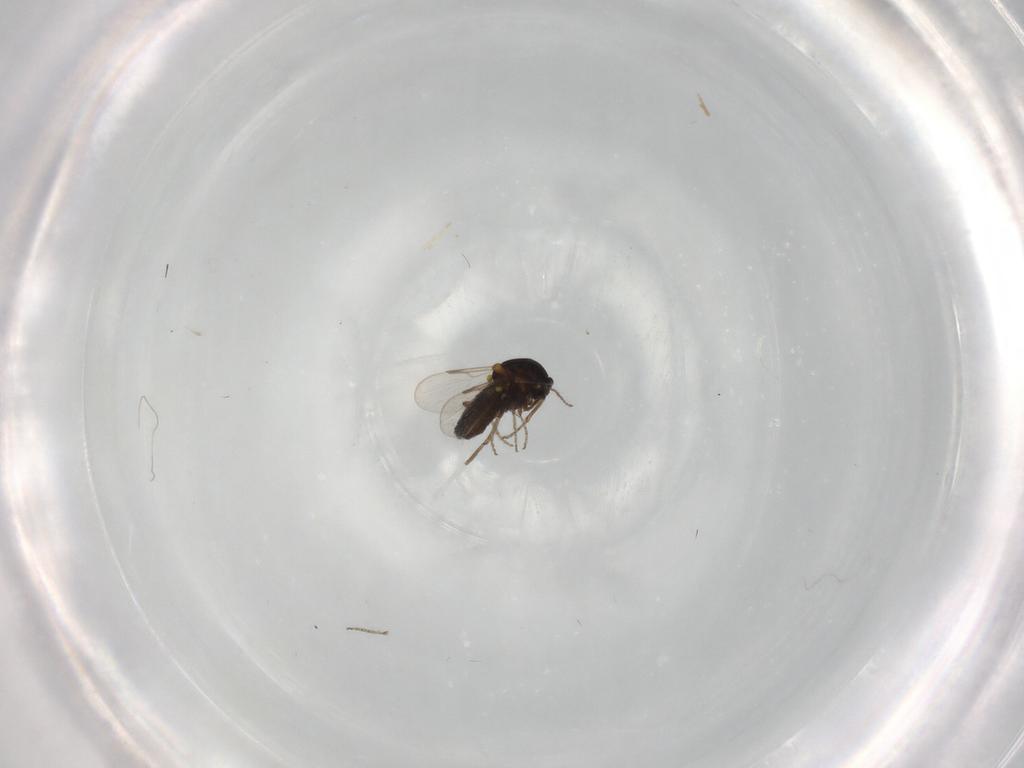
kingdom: Animalia
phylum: Arthropoda
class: Insecta
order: Diptera
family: Ceratopogonidae
